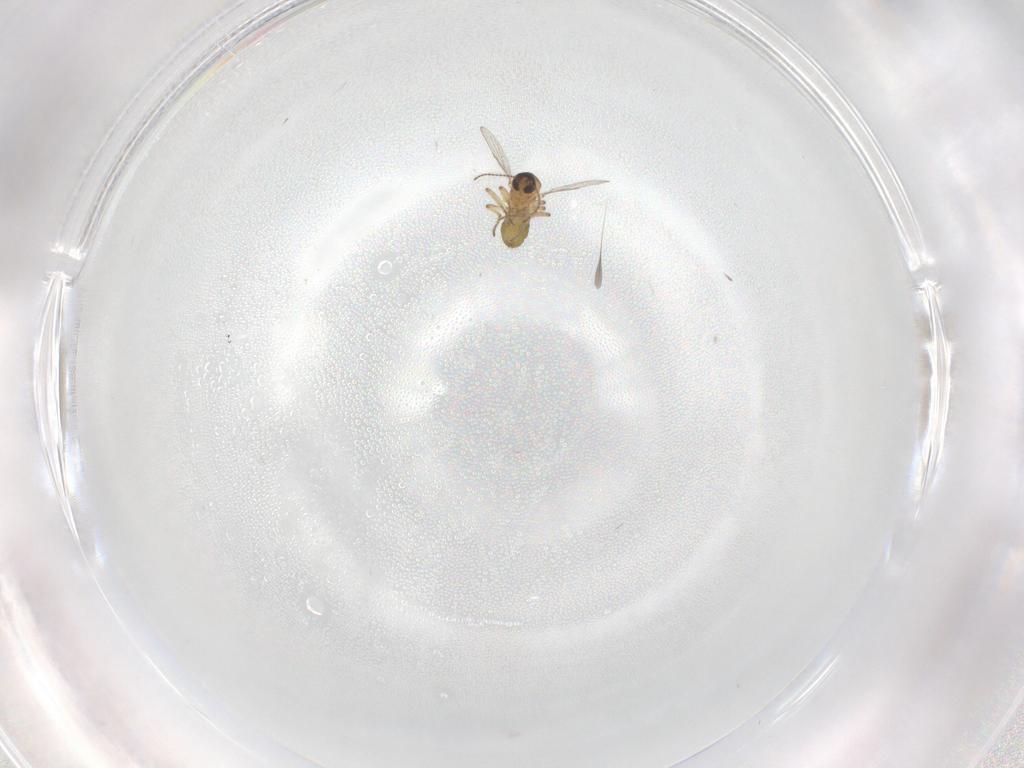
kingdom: Animalia
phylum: Arthropoda
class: Insecta
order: Diptera
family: Ceratopogonidae
